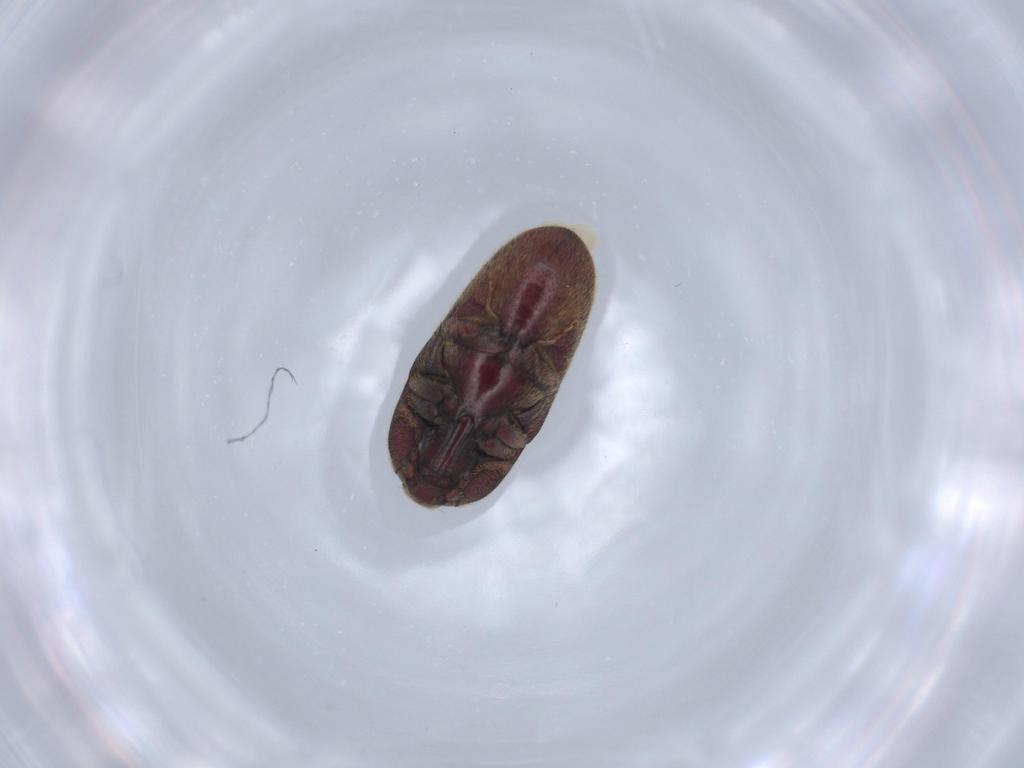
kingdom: Animalia
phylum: Arthropoda
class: Insecta
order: Coleoptera
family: Throscidae
